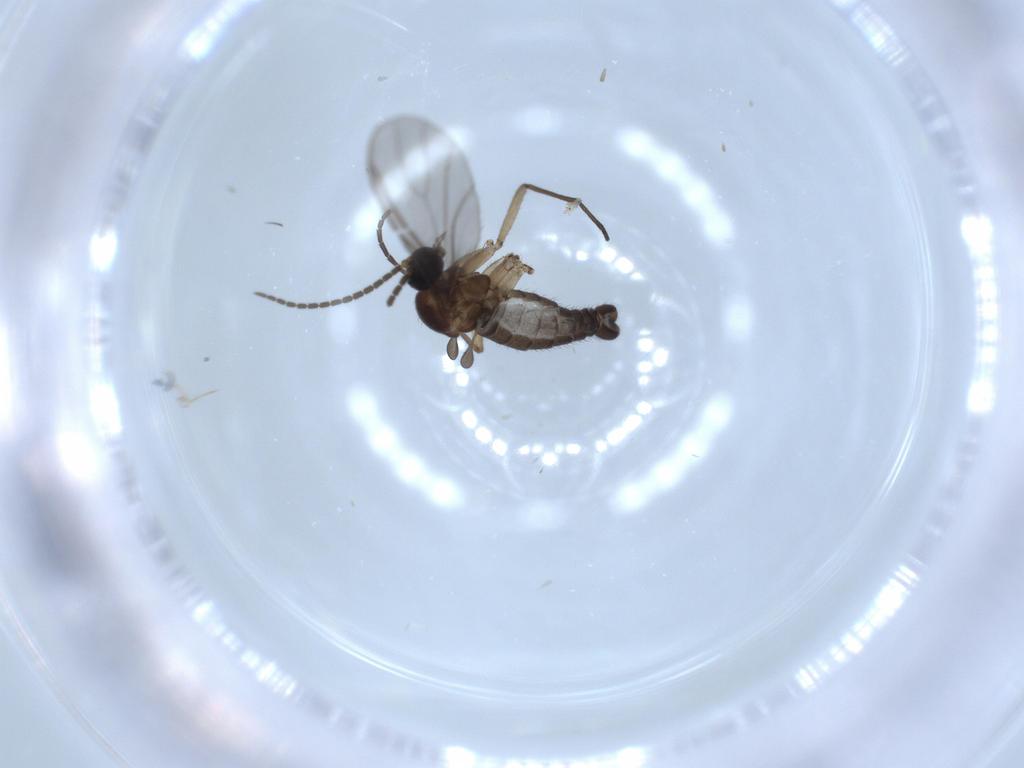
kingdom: Animalia
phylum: Arthropoda
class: Insecta
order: Diptera
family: Sciaridae
